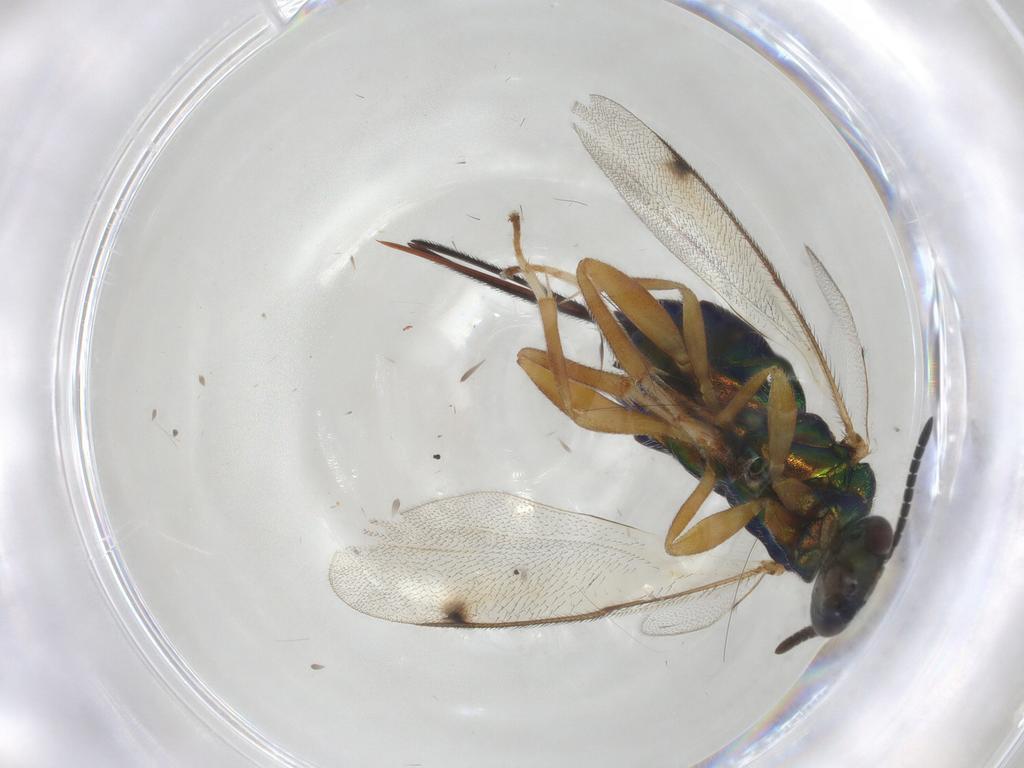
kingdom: Animalia
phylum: Arthropoda
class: Insecta
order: Hymenoptera
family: Torymidae
